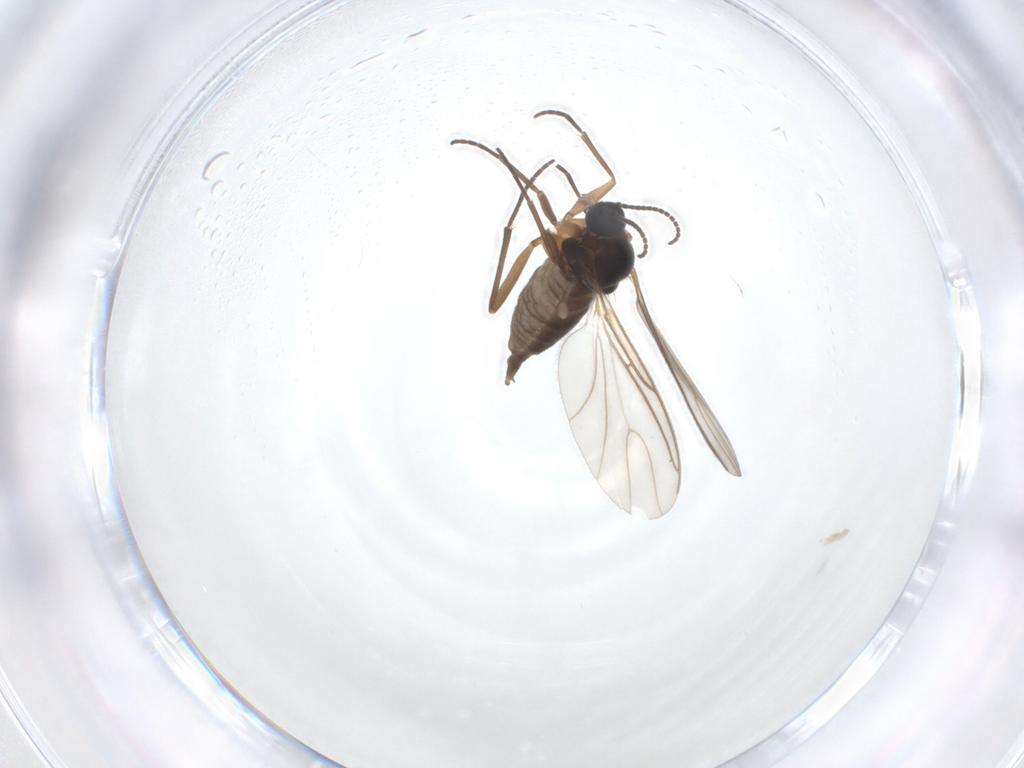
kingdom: Animalia
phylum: Arthropoda
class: Insecta
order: Diptera
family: Sciaridae
